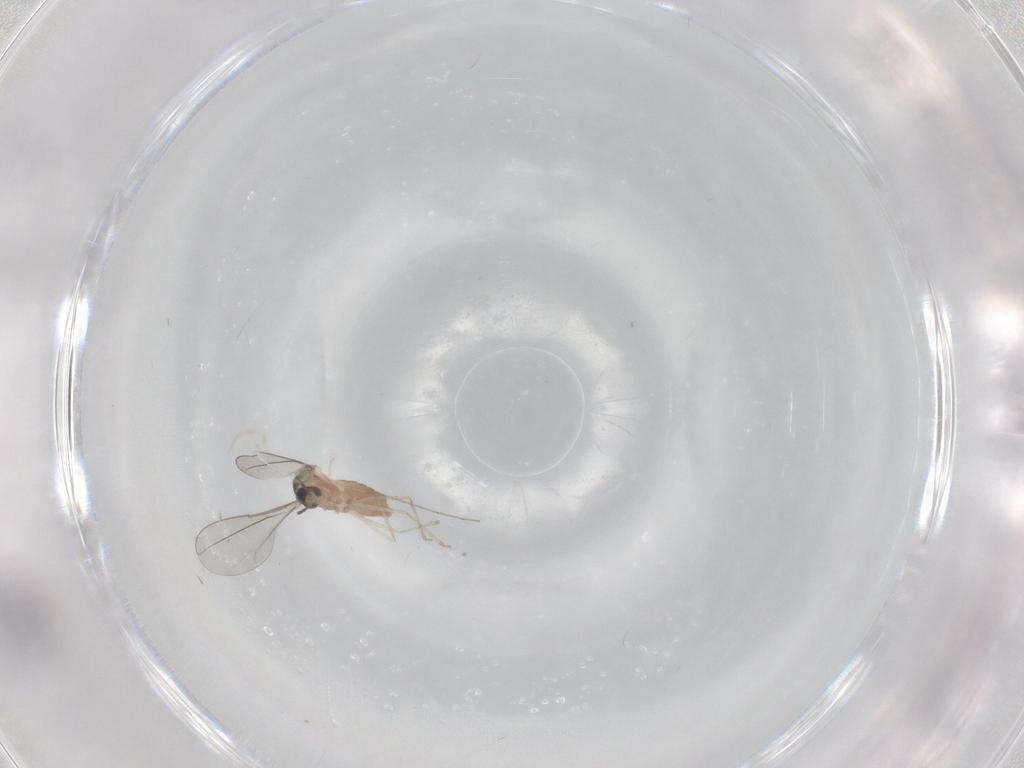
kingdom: Animalia
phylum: Arthropoda
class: Insecta
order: Diptera
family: Cecidomyiidae
